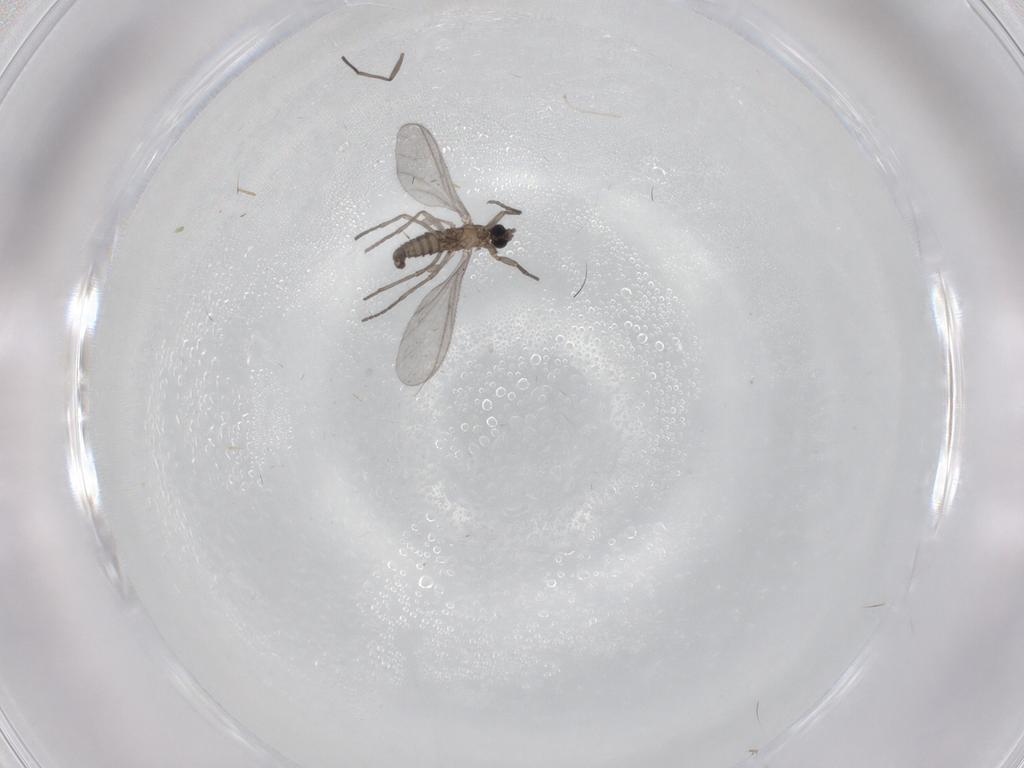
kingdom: Animalia
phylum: Arthropoda
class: Insecta
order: Diptera
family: Sciaridae
